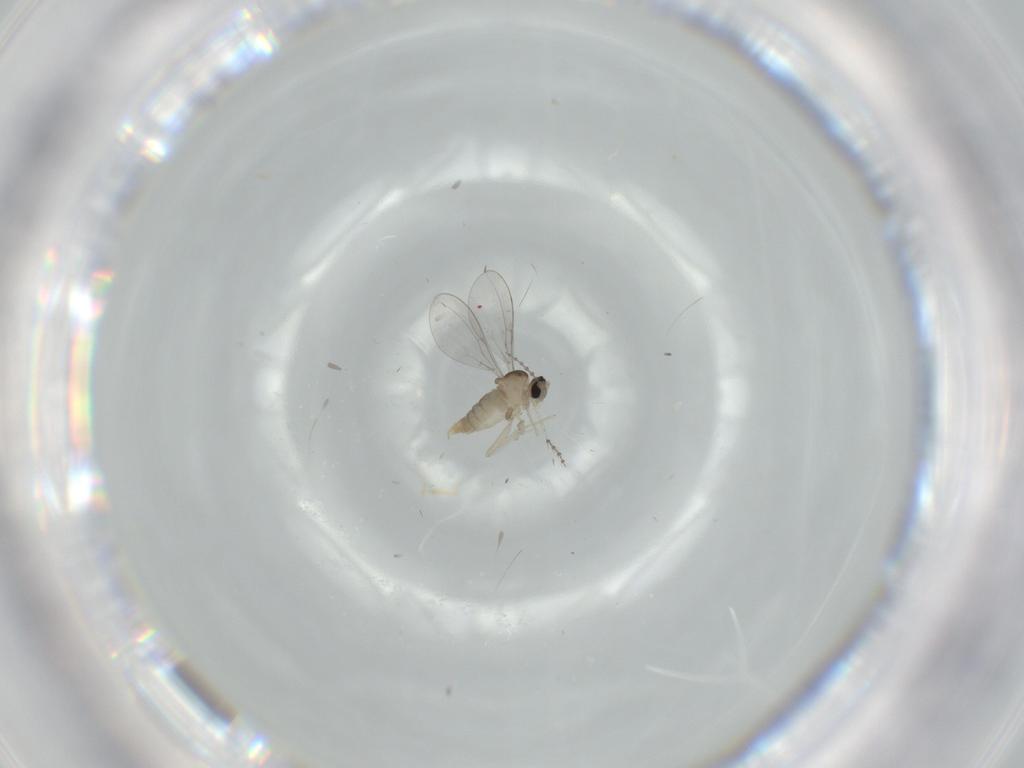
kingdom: Animalia
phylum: Arthropoda
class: Insecta
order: Diptera
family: Cecidomyiidae
